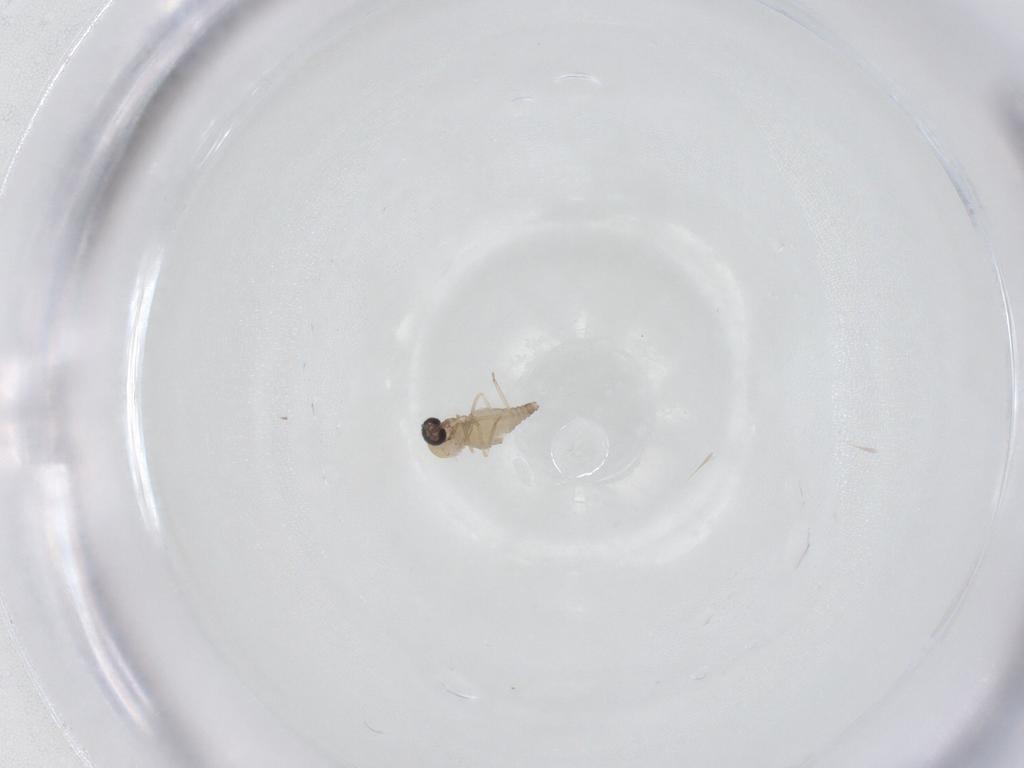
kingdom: Animalia
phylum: Arthropoda
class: Insecta
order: Diptera
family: Ceratopogonidae
